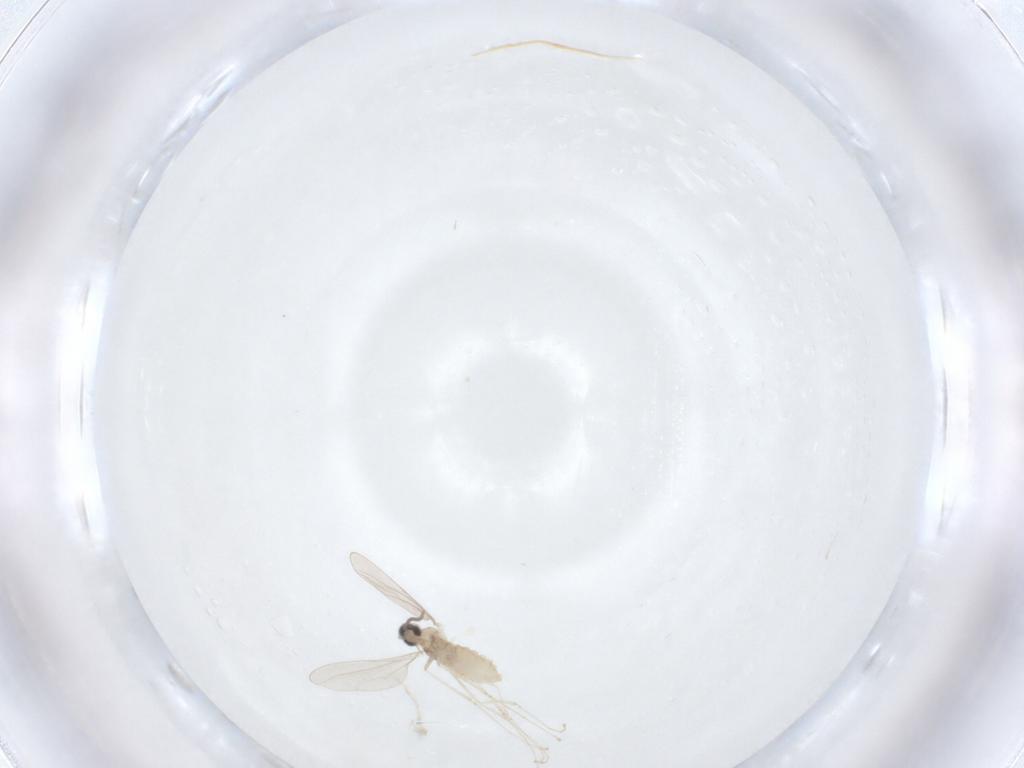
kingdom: Animalia
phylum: Arthropoda
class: Insecta
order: Diptera
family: Cecidomyiidae
